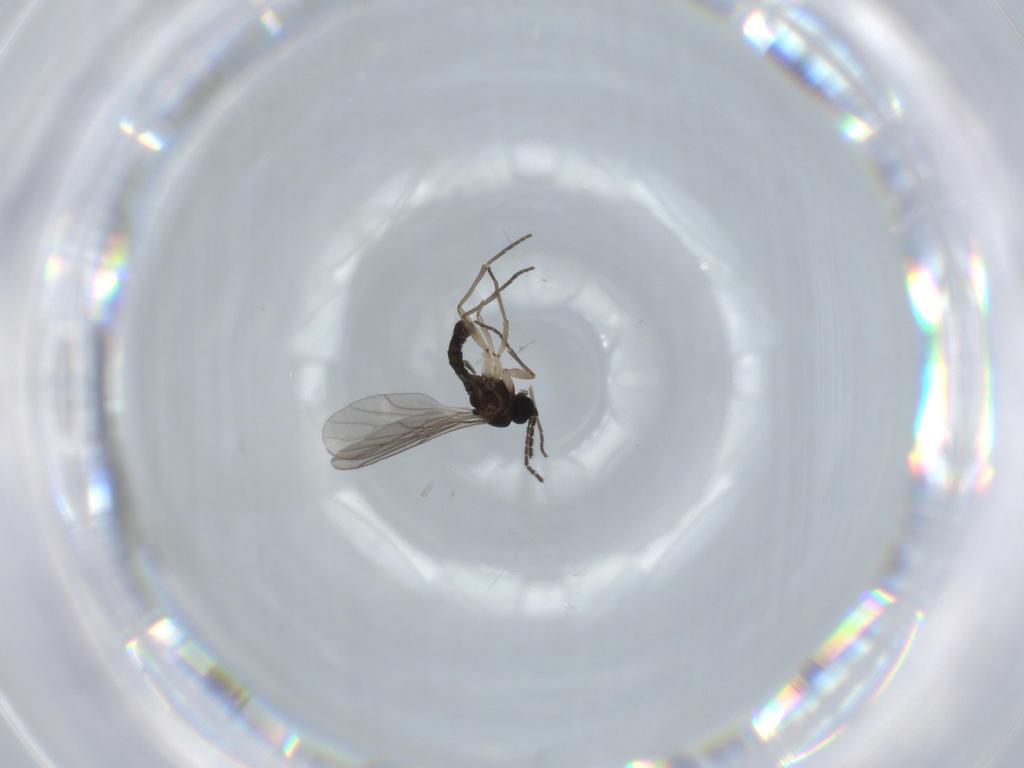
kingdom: Animalia
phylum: Arthropoda
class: Insecta
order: Diptera
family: Sciaridae
